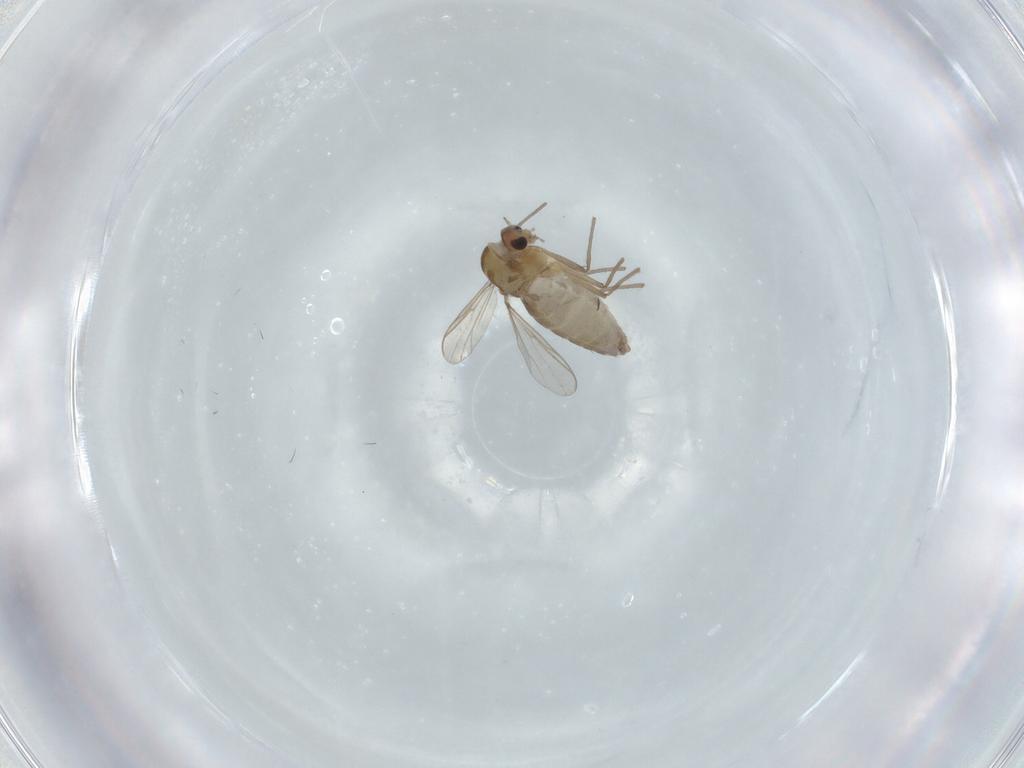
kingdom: Animalia
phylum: Arthropoda
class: Insecta
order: Diptera
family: Chironomidae
